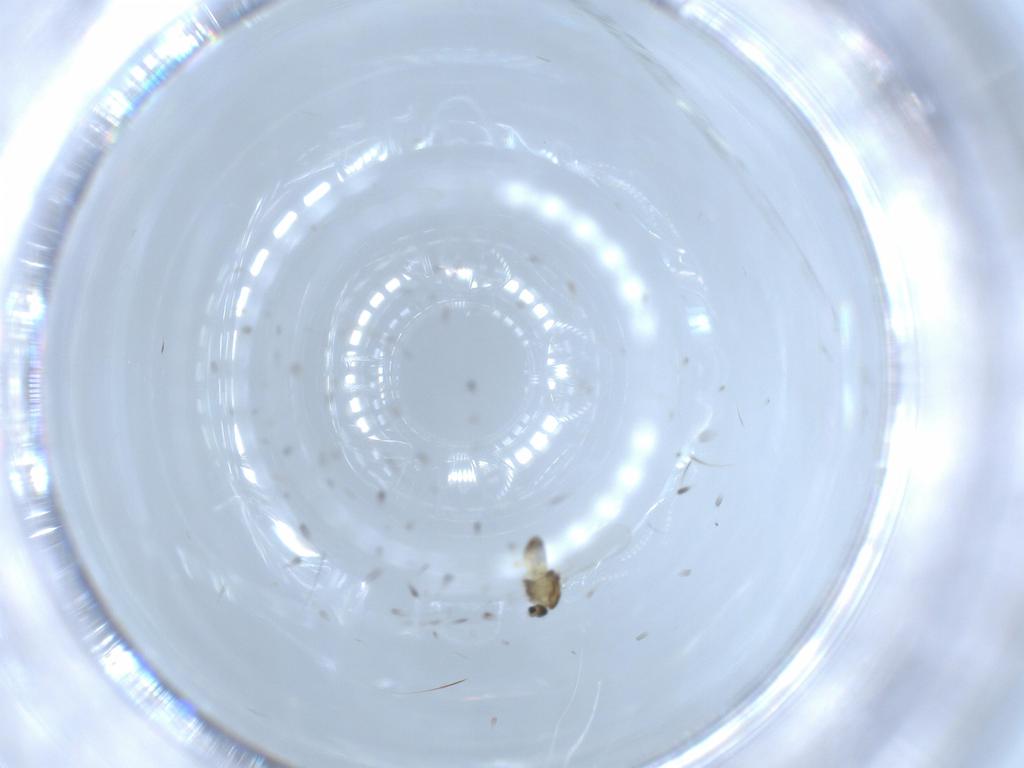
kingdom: Animalia
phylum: Arthropoda
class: Insecta
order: Diptera
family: Chironomidae
